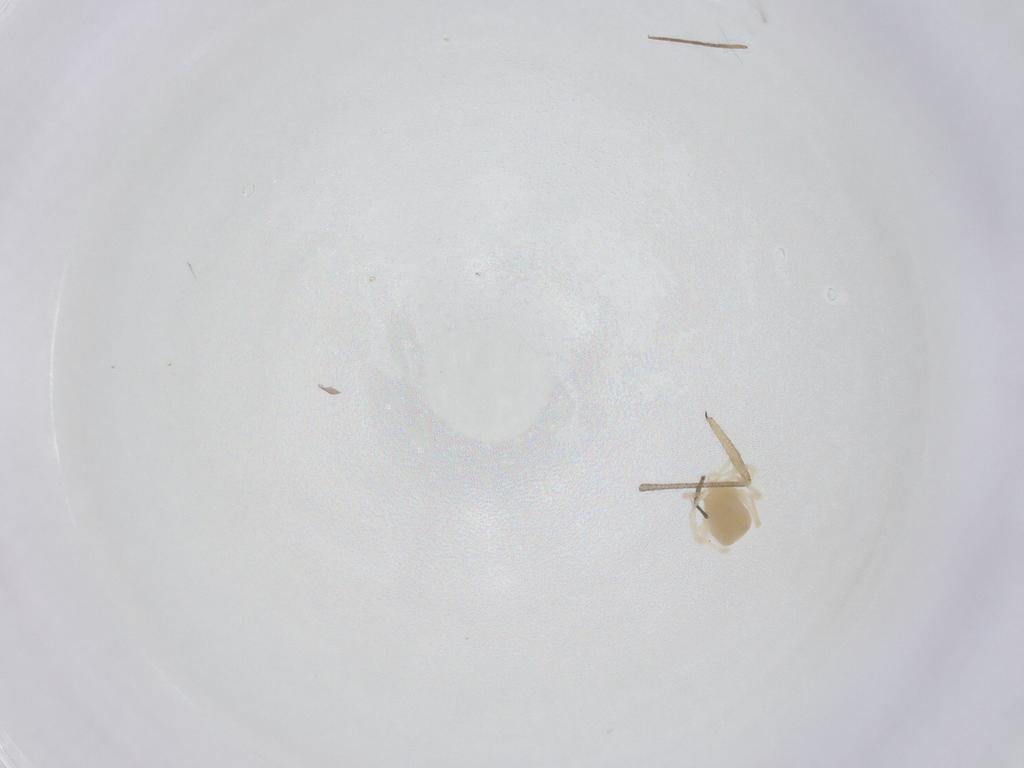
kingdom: Animalia
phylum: Arthropoda
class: Arachnida
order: Trombidiformes
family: Anystidae
